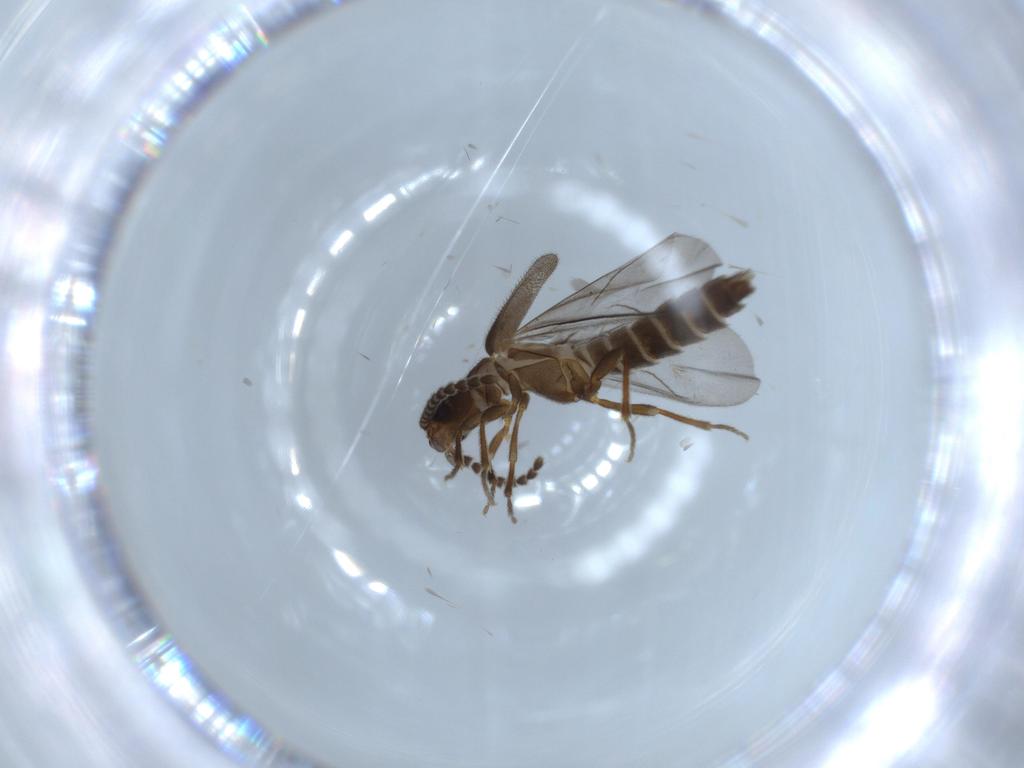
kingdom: Animalia
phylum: Arthropoda
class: Insecta
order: Coleoptera
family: Omethidae
